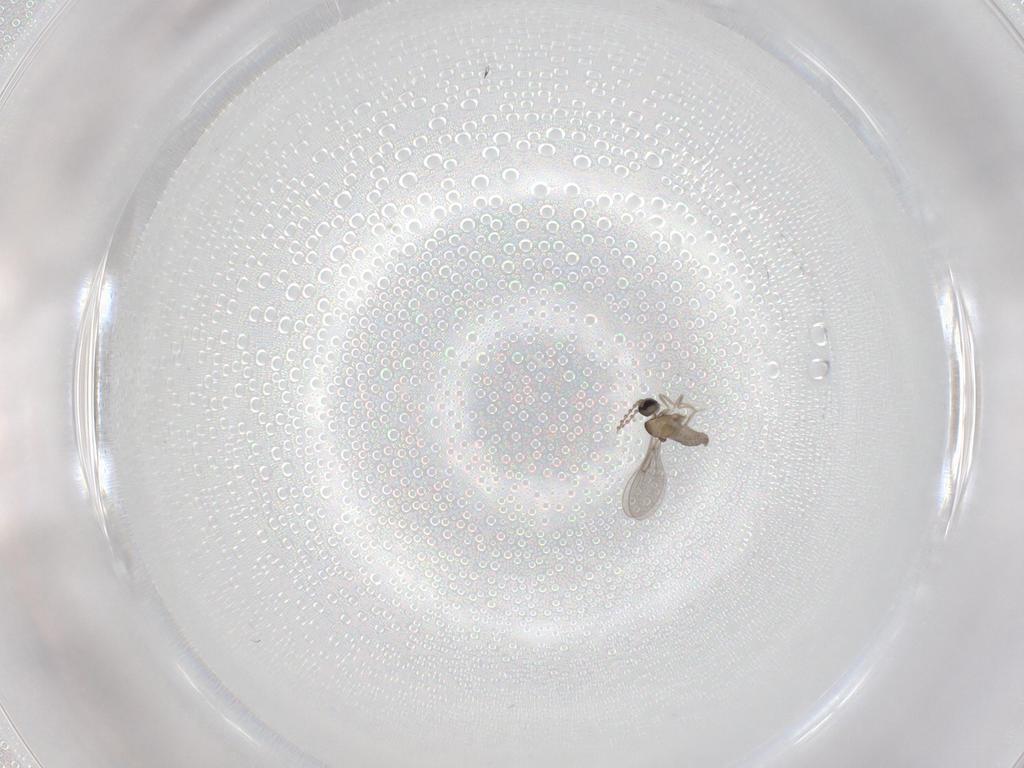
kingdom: Animalia
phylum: Arthropoda
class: Insecta
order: Diptera
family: Cecidomyiidae
